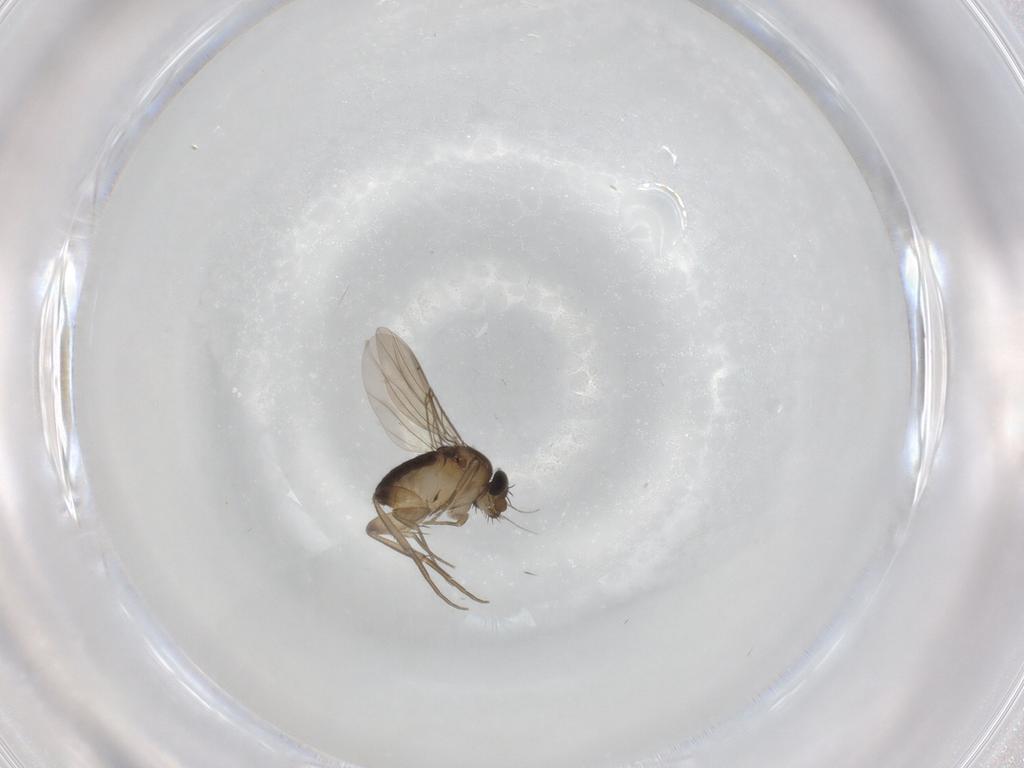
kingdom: Animalia
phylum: Arthropoda
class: Insecta
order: Diptera
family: Phoridae
